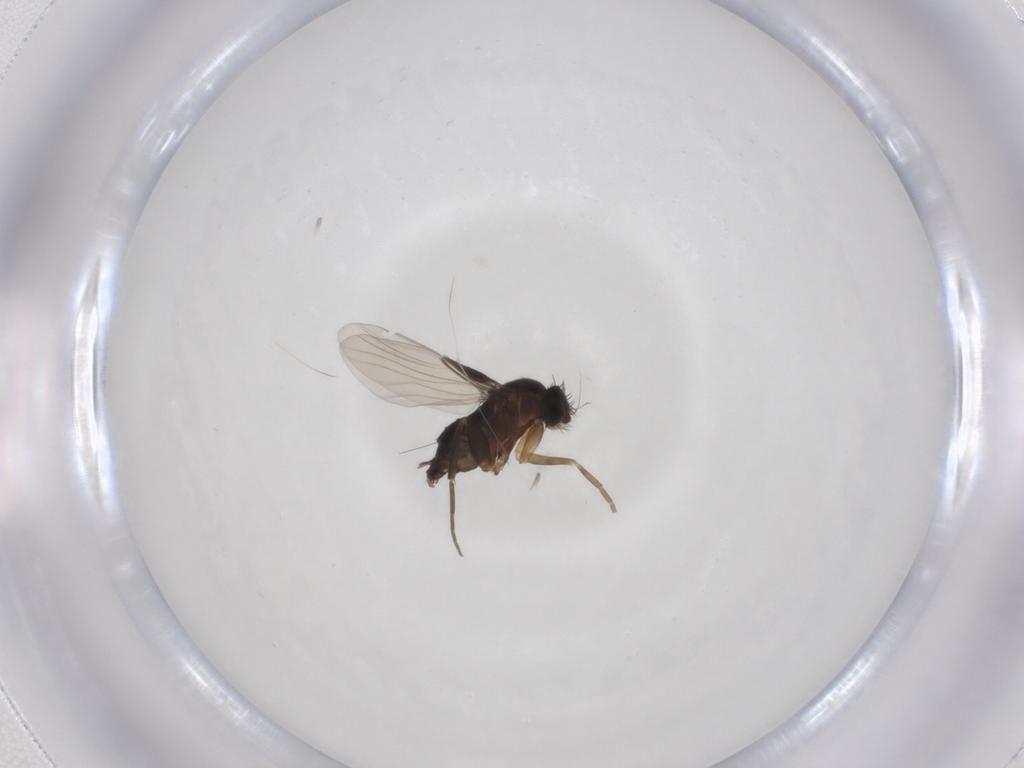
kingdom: Animalia
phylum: Arthropoda
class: Insecta
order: Diptera
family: Phoridae
